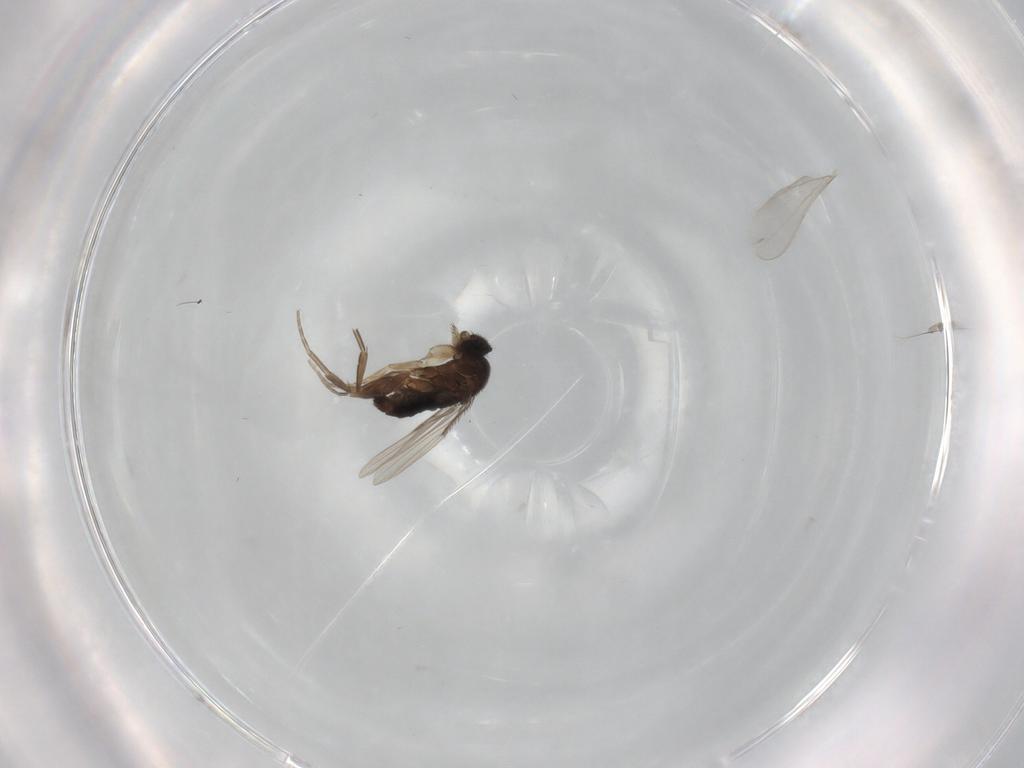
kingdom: Animalia
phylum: Arthropoda
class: Insecta
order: Diptera
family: Phoridae
